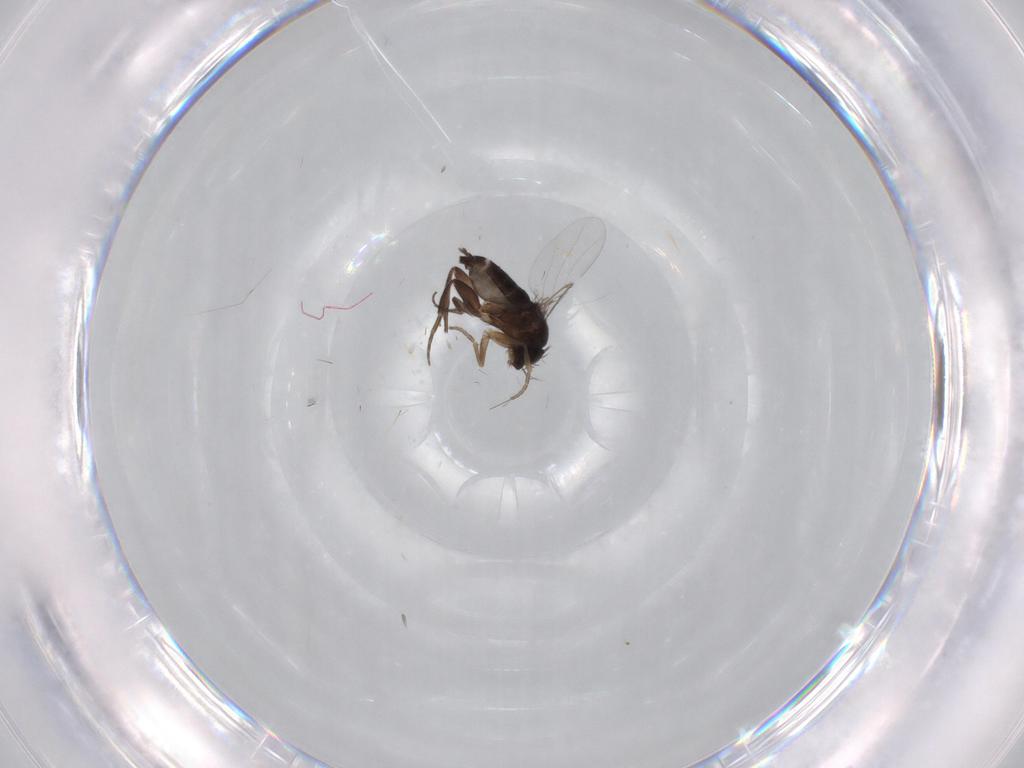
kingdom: Animalia
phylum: Arthropoda
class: Insecta
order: Diptera
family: Phoridae
